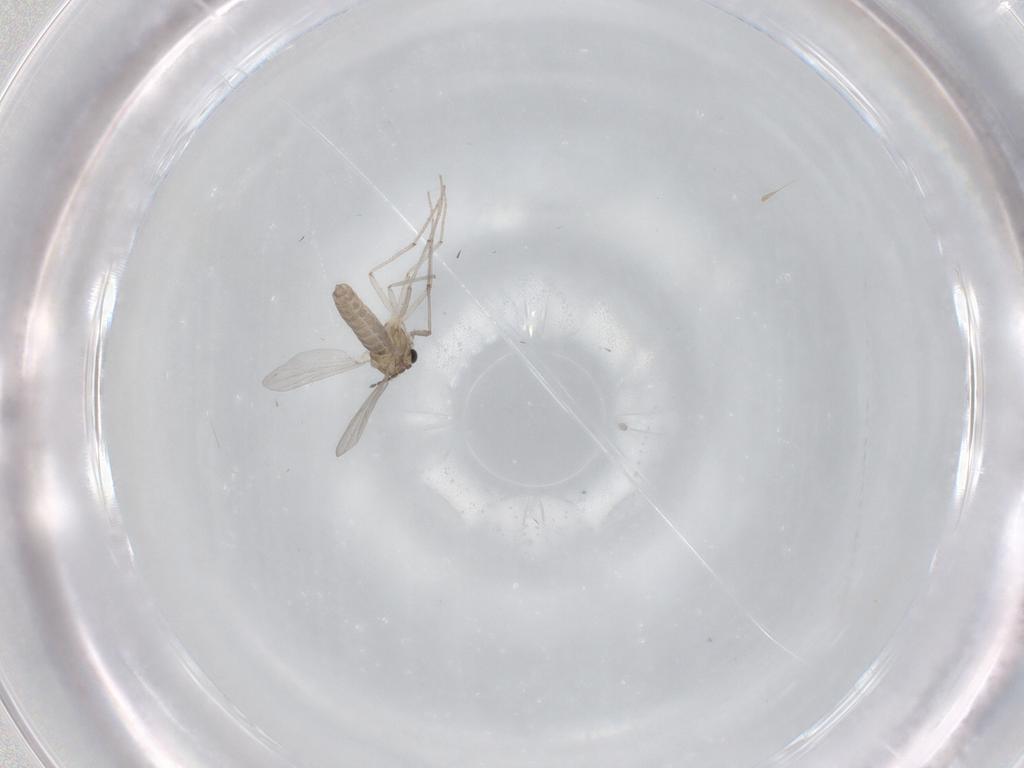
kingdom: Animalia
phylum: Arthropoda
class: Insecta
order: Diptera
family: Chironomidae
